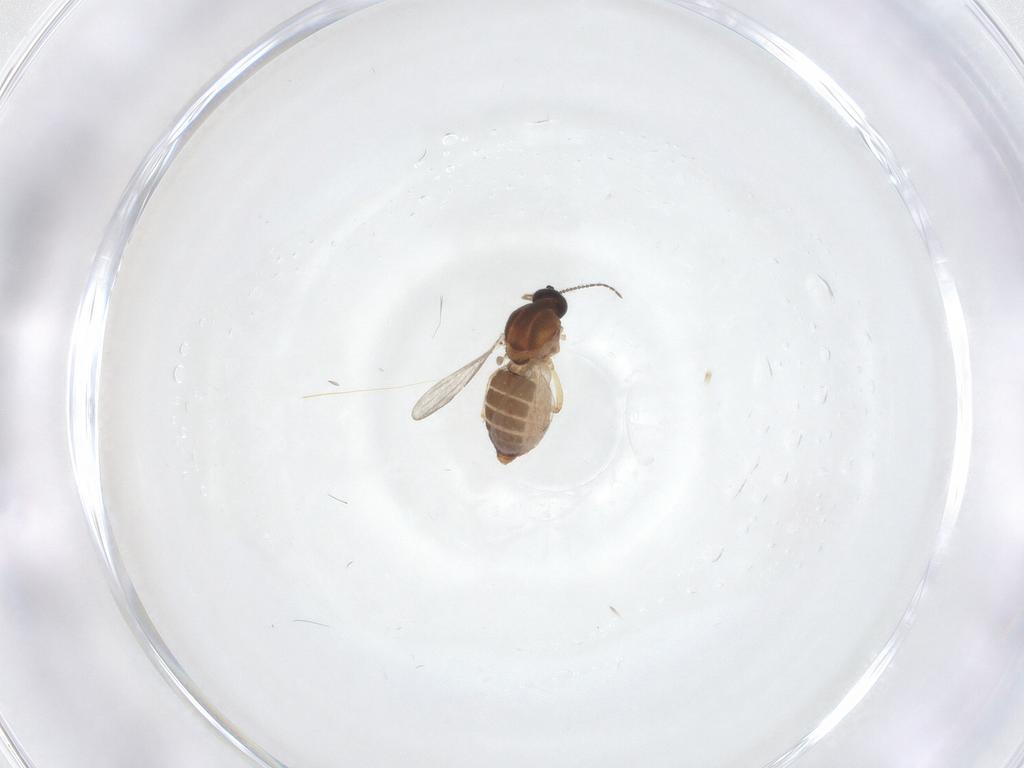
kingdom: Animalia
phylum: Arthropoda
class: Insecta
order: Diptera
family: Ceratopogonidae
